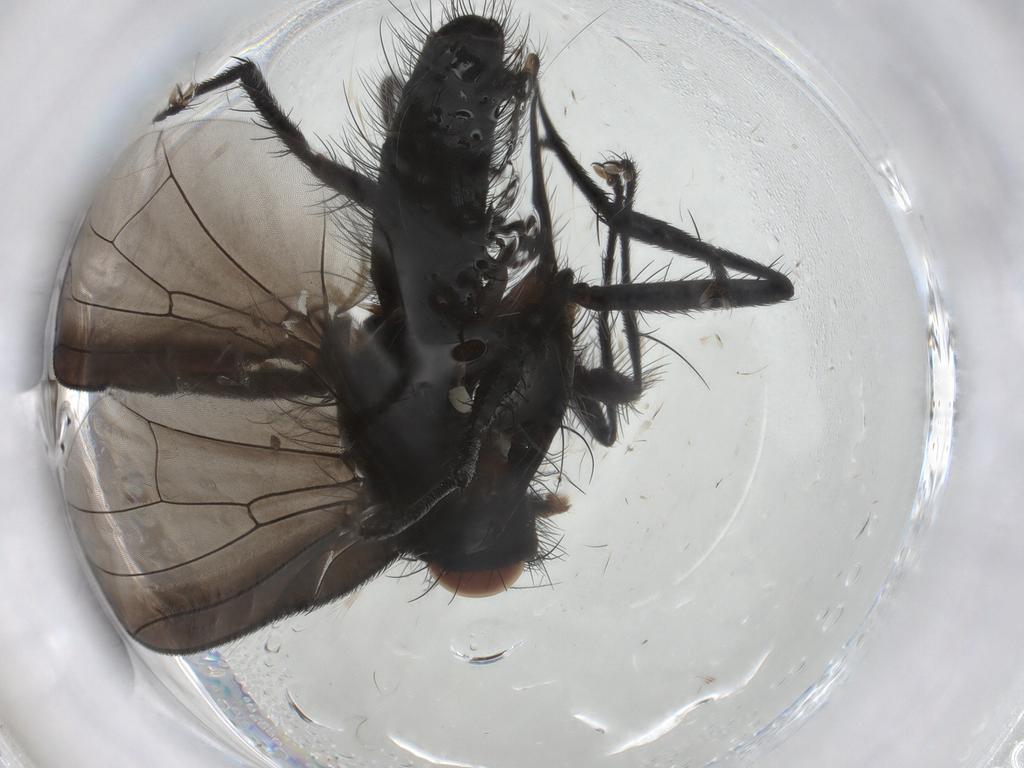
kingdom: Animalia
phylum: Arthropoda
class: Insecta
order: Diptera
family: Anthomyiidae
